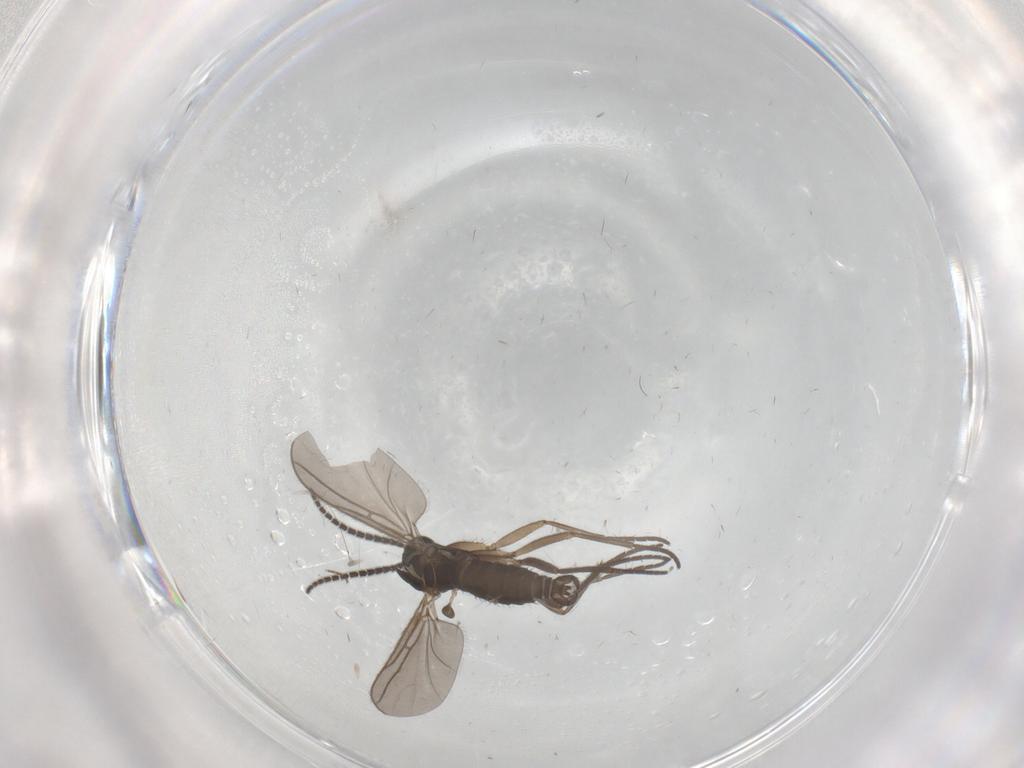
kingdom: Animalia
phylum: Arthropoda
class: Insecta
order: Diptera
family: Sciaridae
